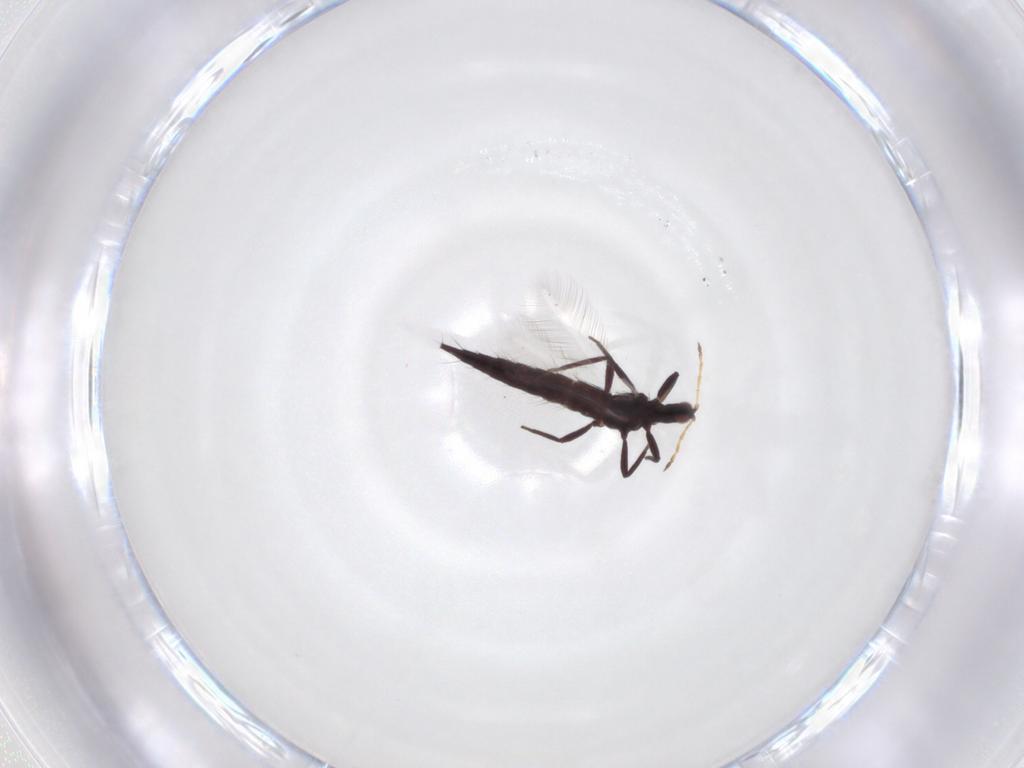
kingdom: Animalia
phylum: Arthropoda
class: Insecta
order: Thysanoptera
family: Phlaeothripidae
